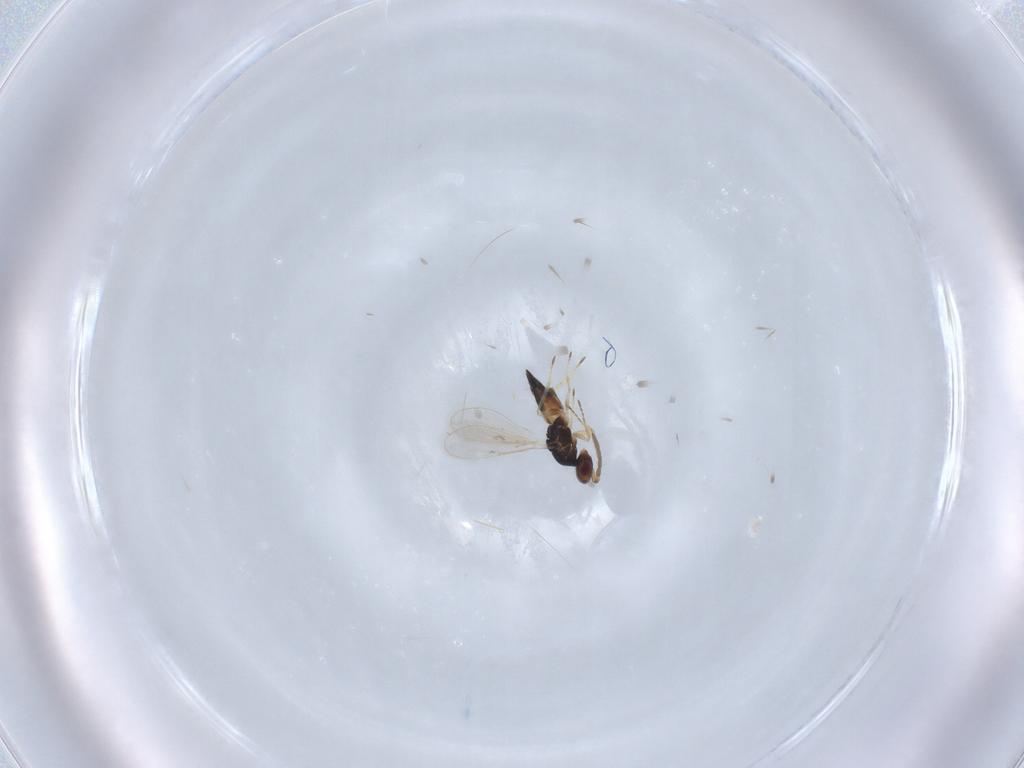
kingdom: Animalia
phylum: Arthropoda
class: Insecta
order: Hymenoptera
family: Eulophidae
